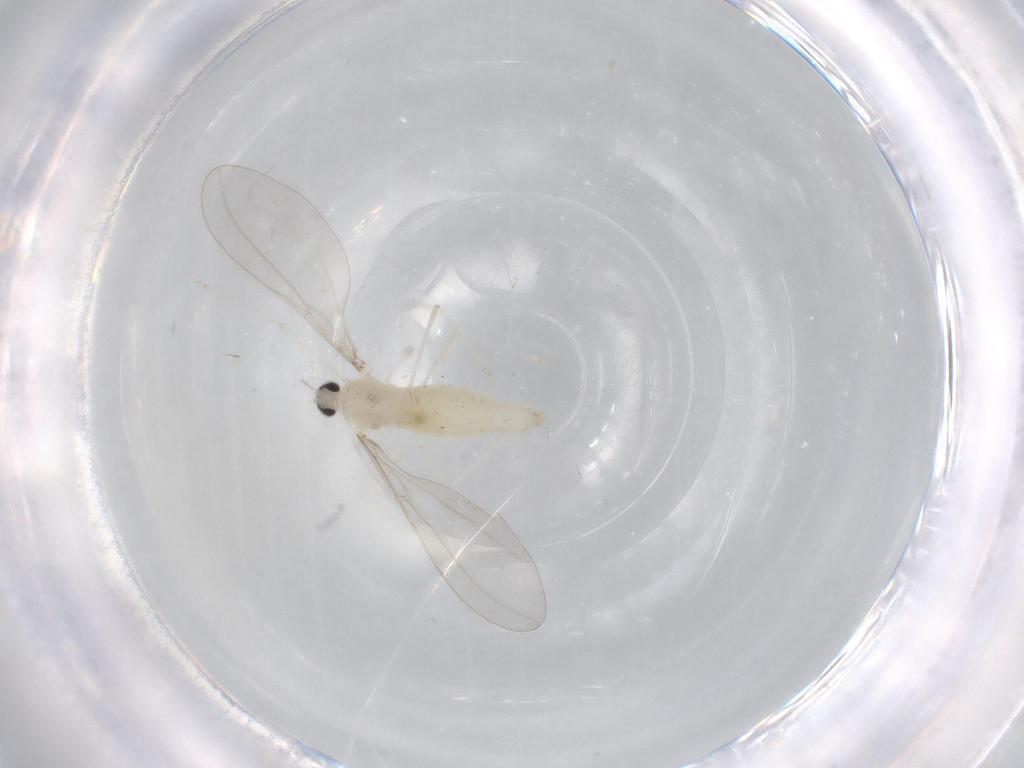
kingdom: Animalia
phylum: Arthropoda
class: Insecta
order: Diptera
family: Cecidomyiidae
